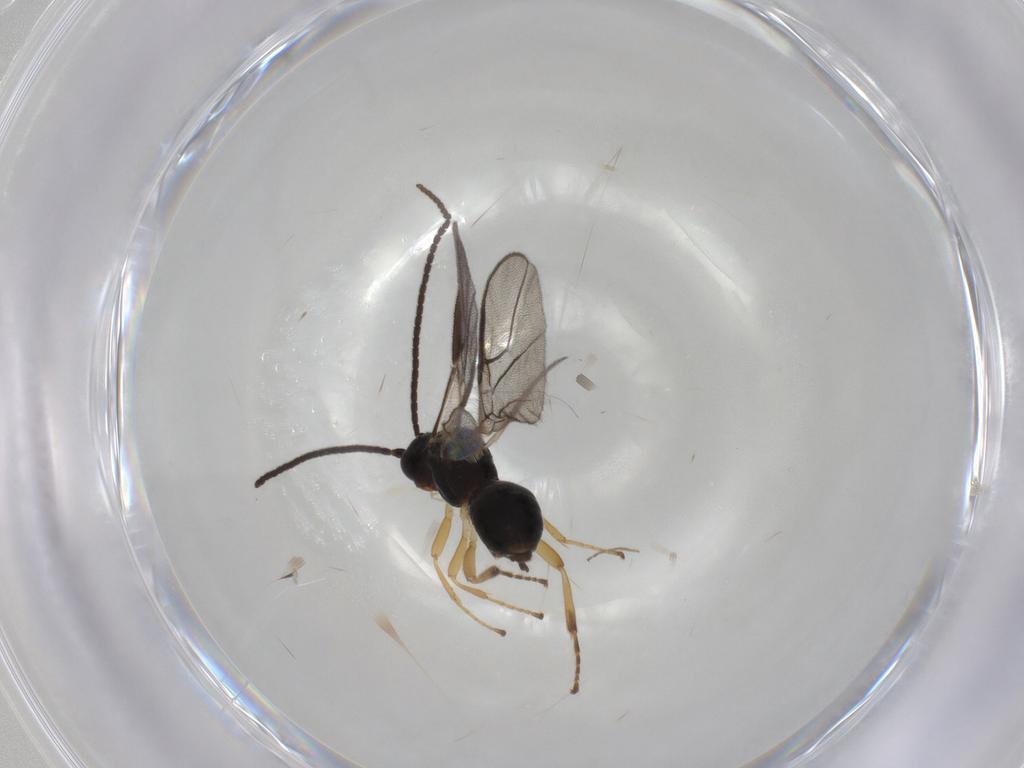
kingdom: Animalia
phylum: Arthropoda
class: Insecta
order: Hymenoptera
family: Braconidae
